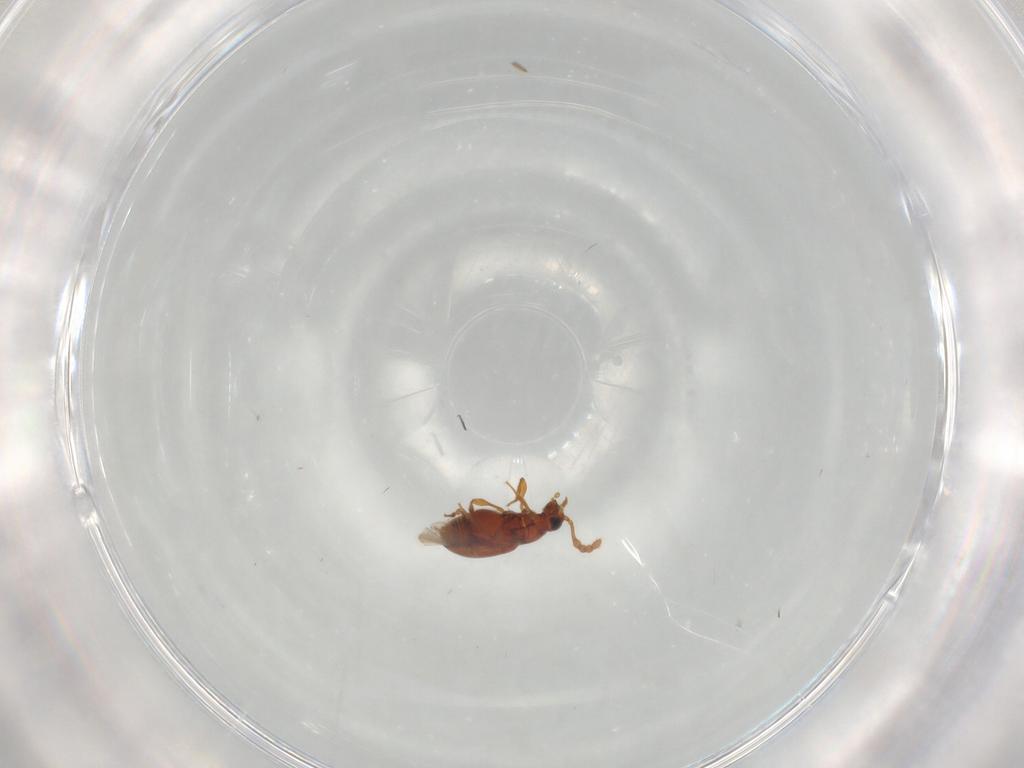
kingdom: Animalia
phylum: Arthropoda
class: Insecta
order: Coleoptera
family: Staphylinidae
